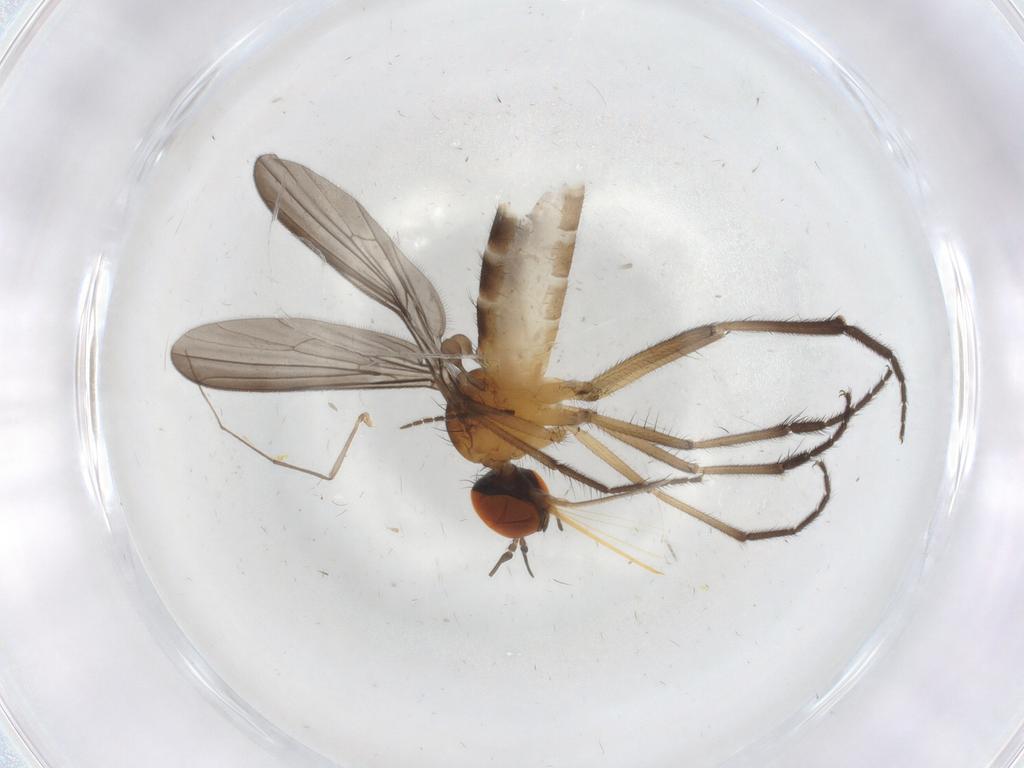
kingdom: Animalia
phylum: Arthropoda
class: Insecta
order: Diptera
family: Empididae
